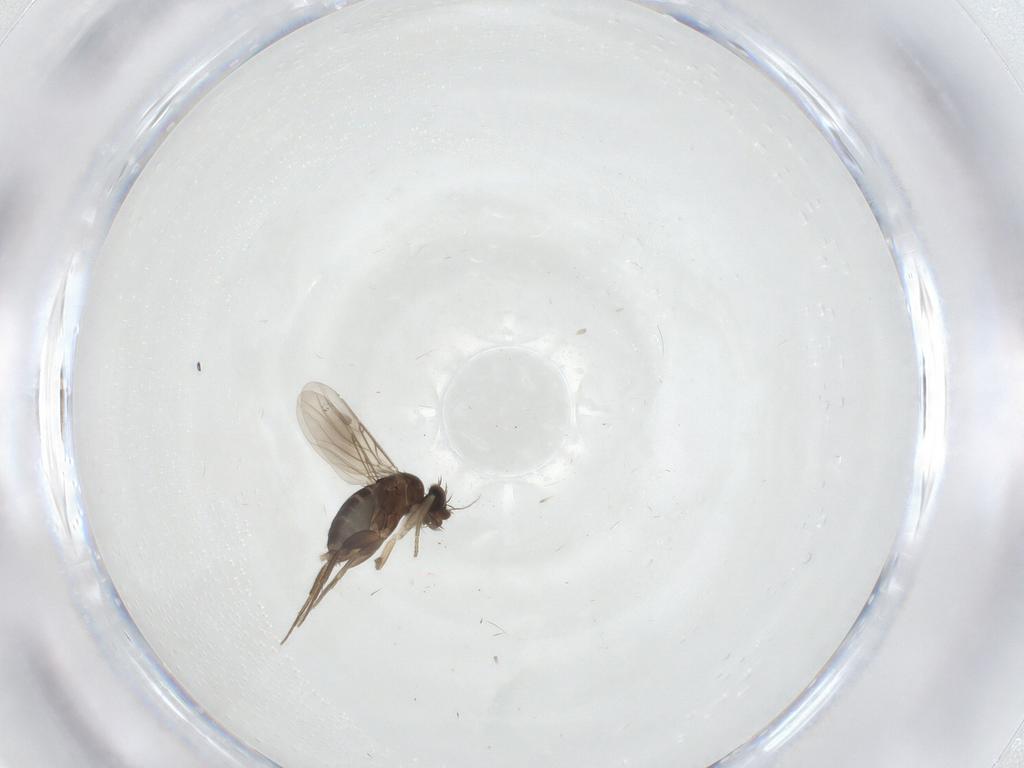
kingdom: Animalia
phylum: Arthropoda
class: Insecta
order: Diptera
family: Phoridae
